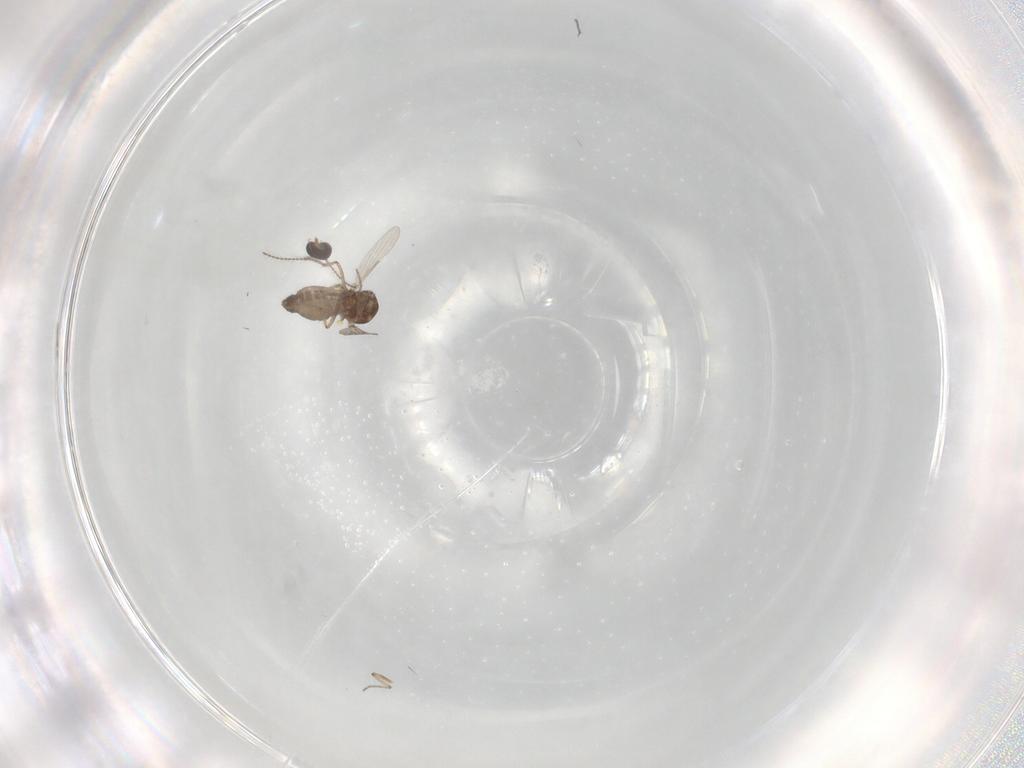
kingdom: Animalia
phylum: Arthropoda
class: Insecta
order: Diptera
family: Ceratopogonidae
